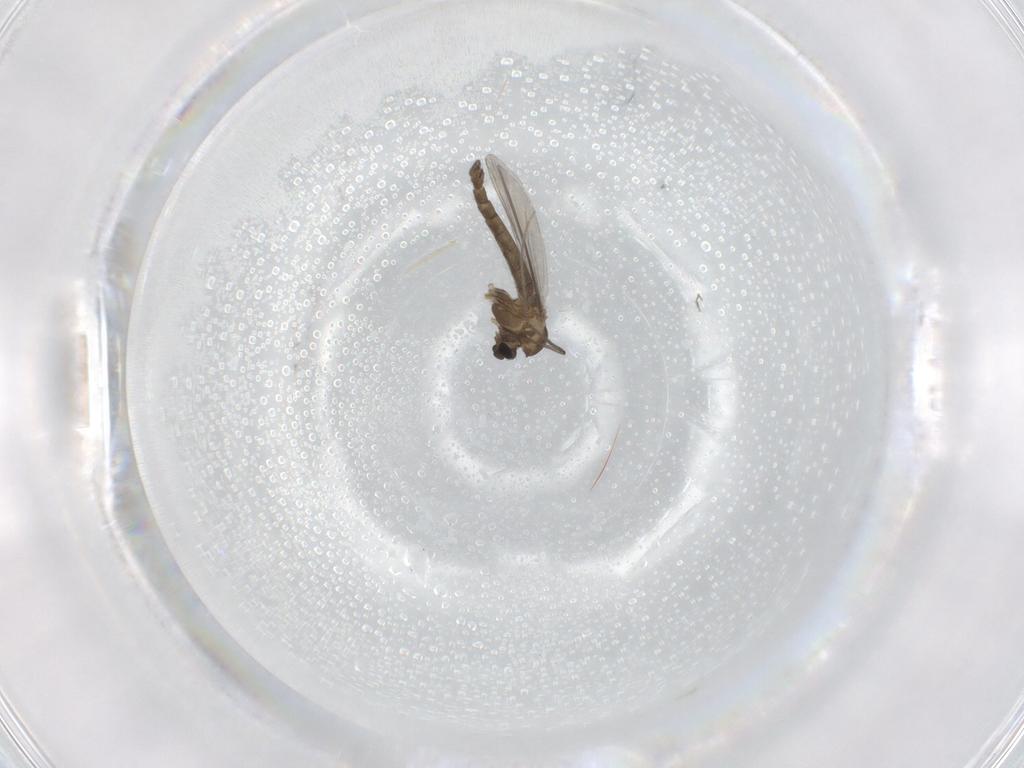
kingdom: Animalia
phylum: Arthropoda
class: Insecta
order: Diptera
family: Chironomidae
